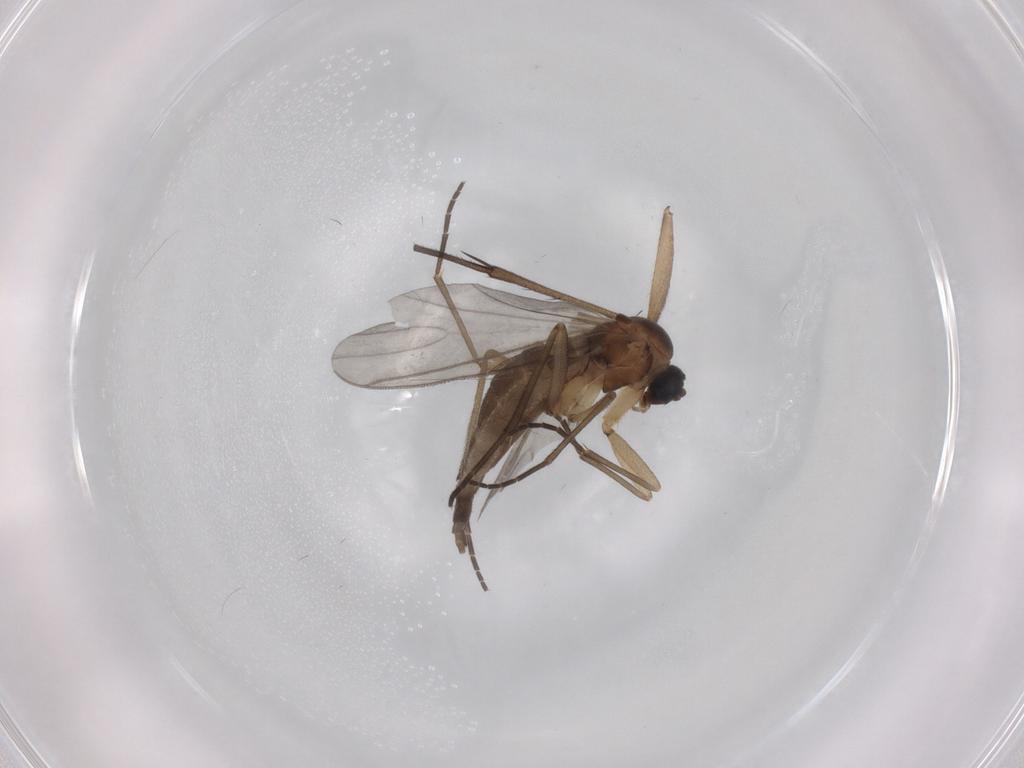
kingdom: Animalia
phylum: Arthropoda
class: Insecta
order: Diptera
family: Sciaridae
